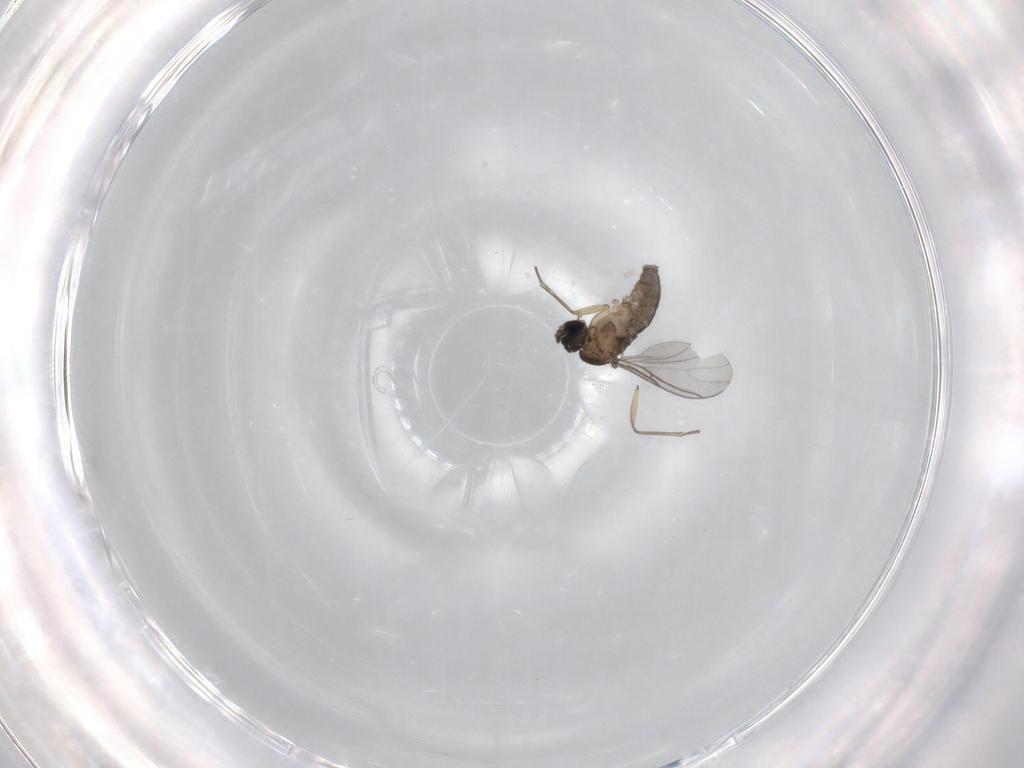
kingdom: Animalia
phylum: Arthropoda
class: Insecta
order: Diptera
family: Sciaridae
